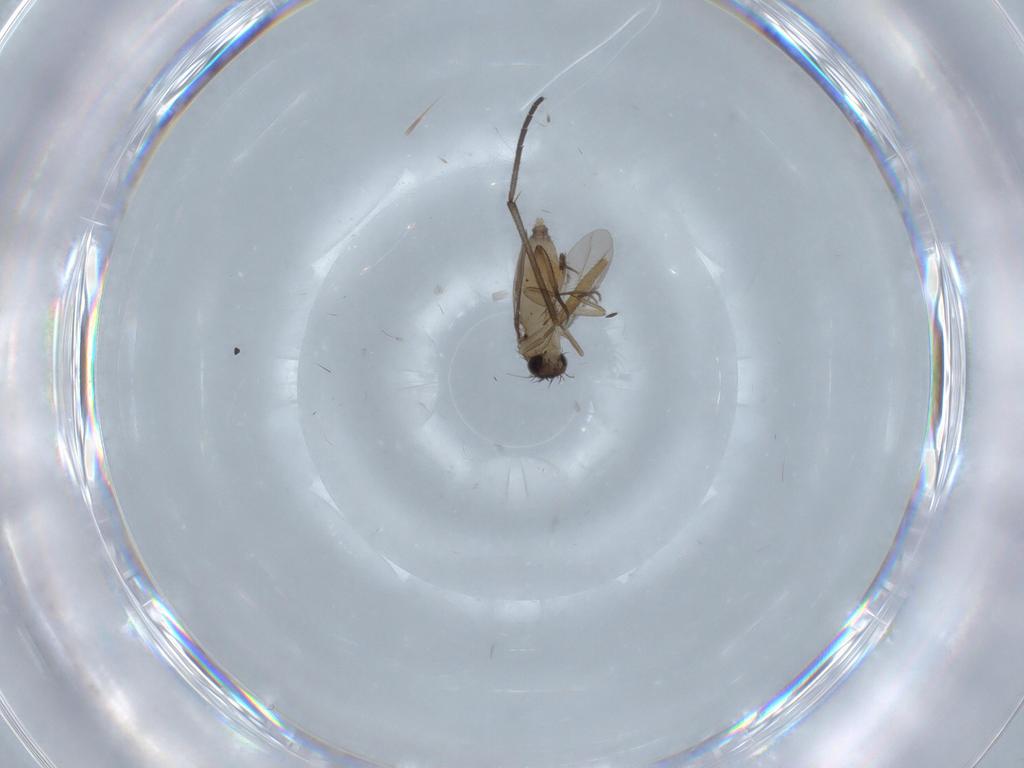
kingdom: Animalia
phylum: Arthropoda
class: Insecta
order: Diptera
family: Phoridae
